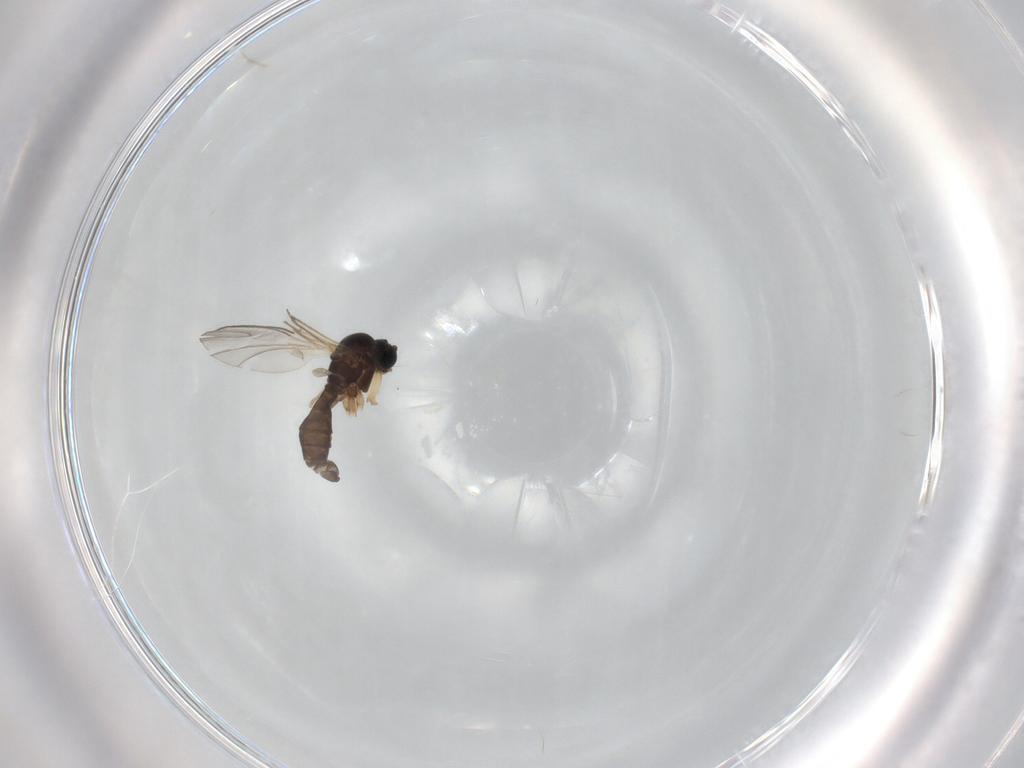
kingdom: Animalia
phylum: Arthropoda
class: Insecta
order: Diptera
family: Sciaridae
